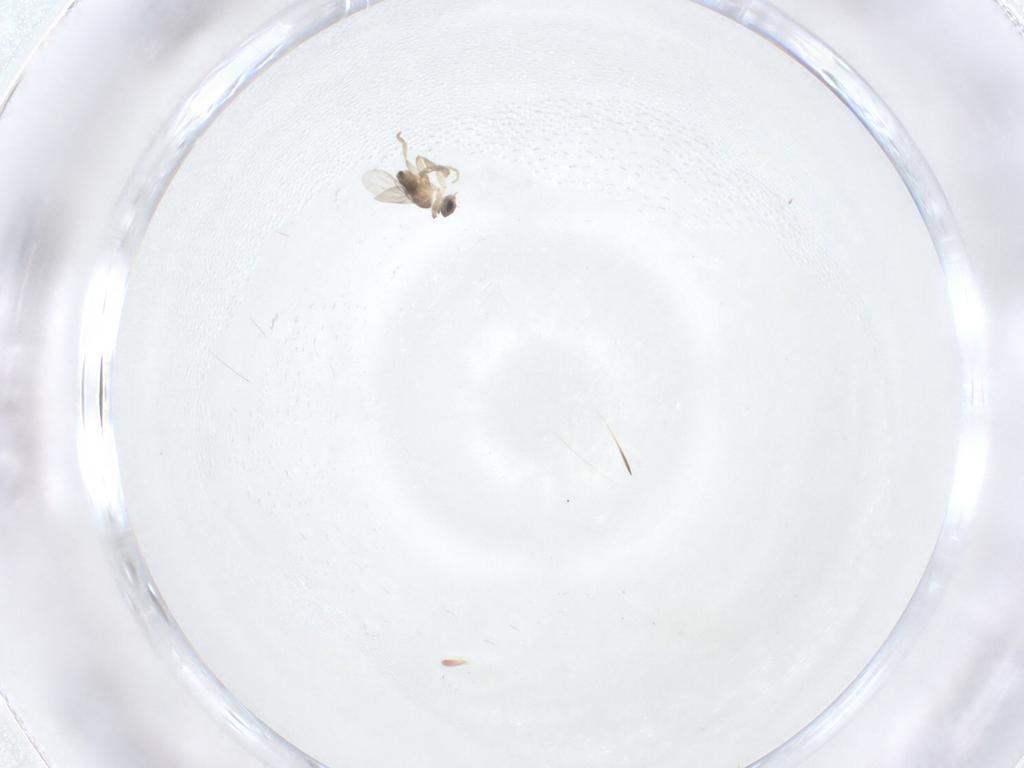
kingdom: Animalia
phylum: Arthropoda
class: Insecta
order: Diptera
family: Phoridae
